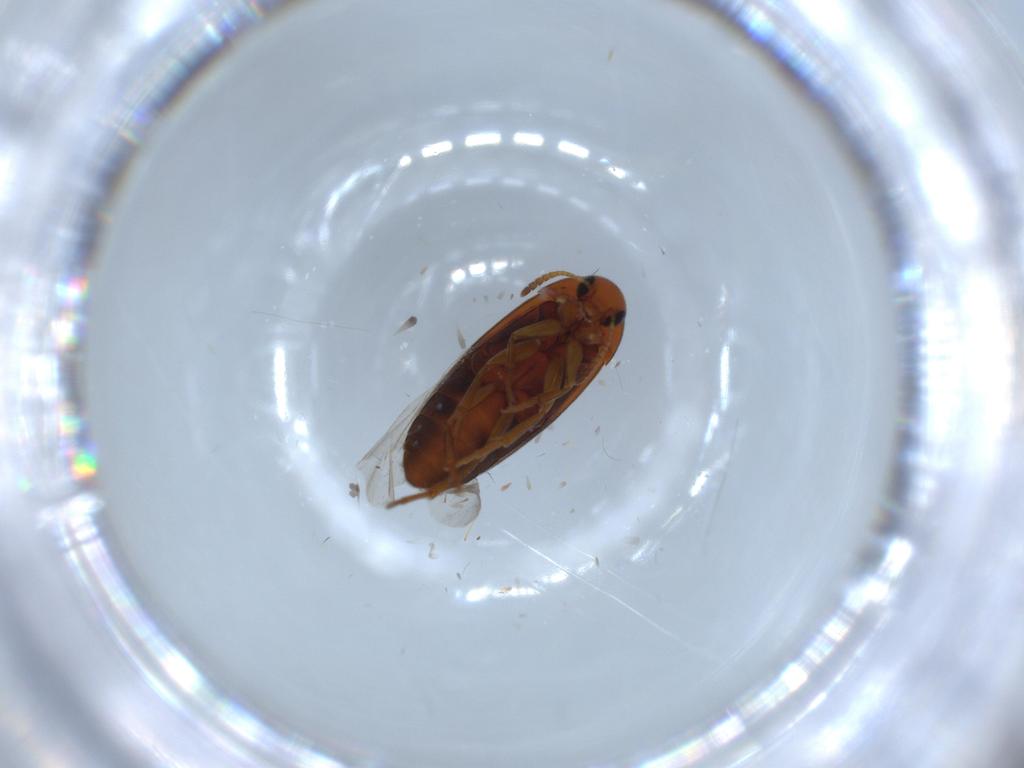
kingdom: Animalia
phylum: Arthropoda
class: Insecta
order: Coleoptera
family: Scraptiidae
